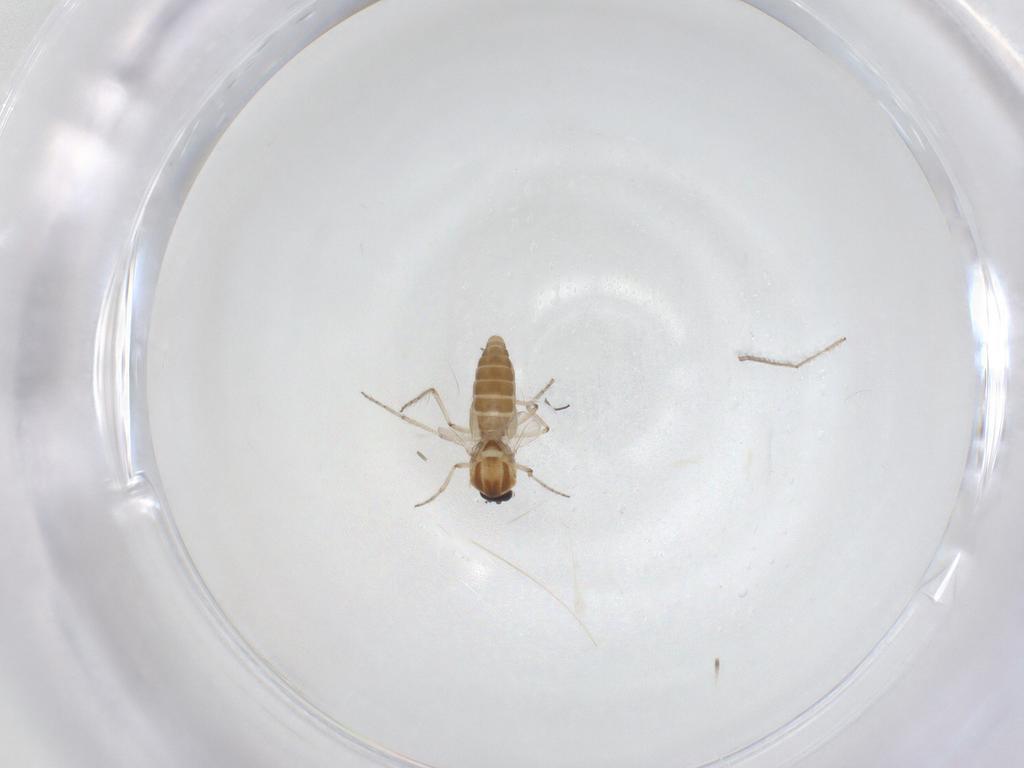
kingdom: Animalia
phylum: Arthropoda
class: Insecta
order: Diptera
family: Ceratopogonidae
